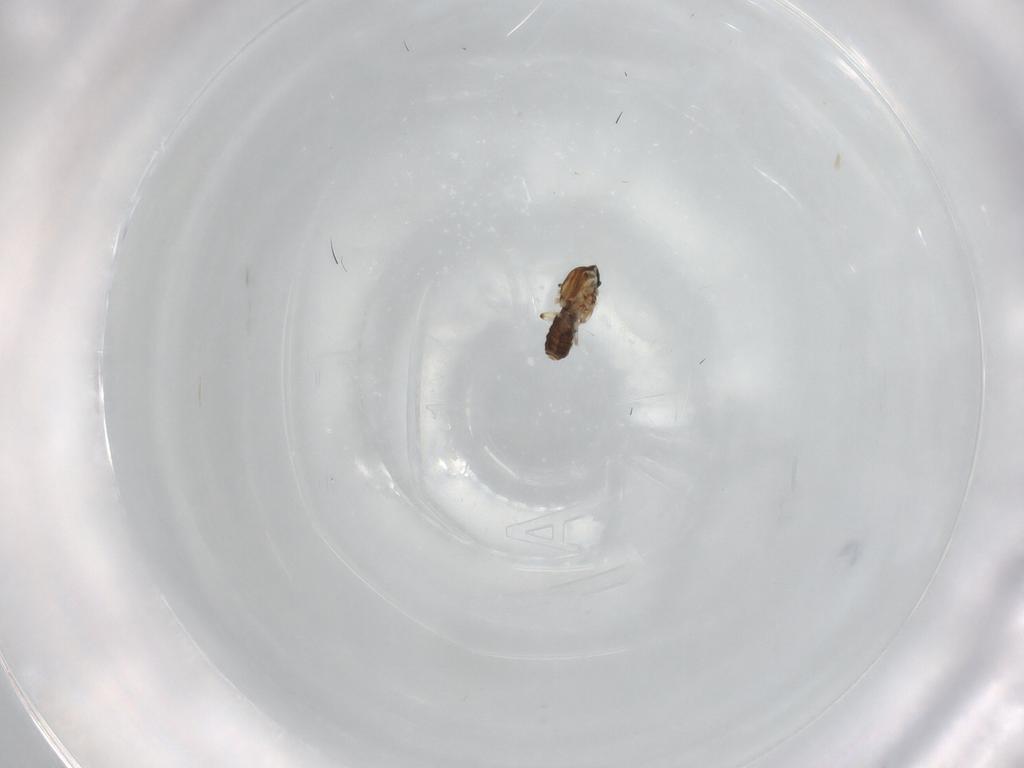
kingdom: Animalia
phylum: Arthropoda
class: Insecta
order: Diptera
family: Ceratopogonidae
